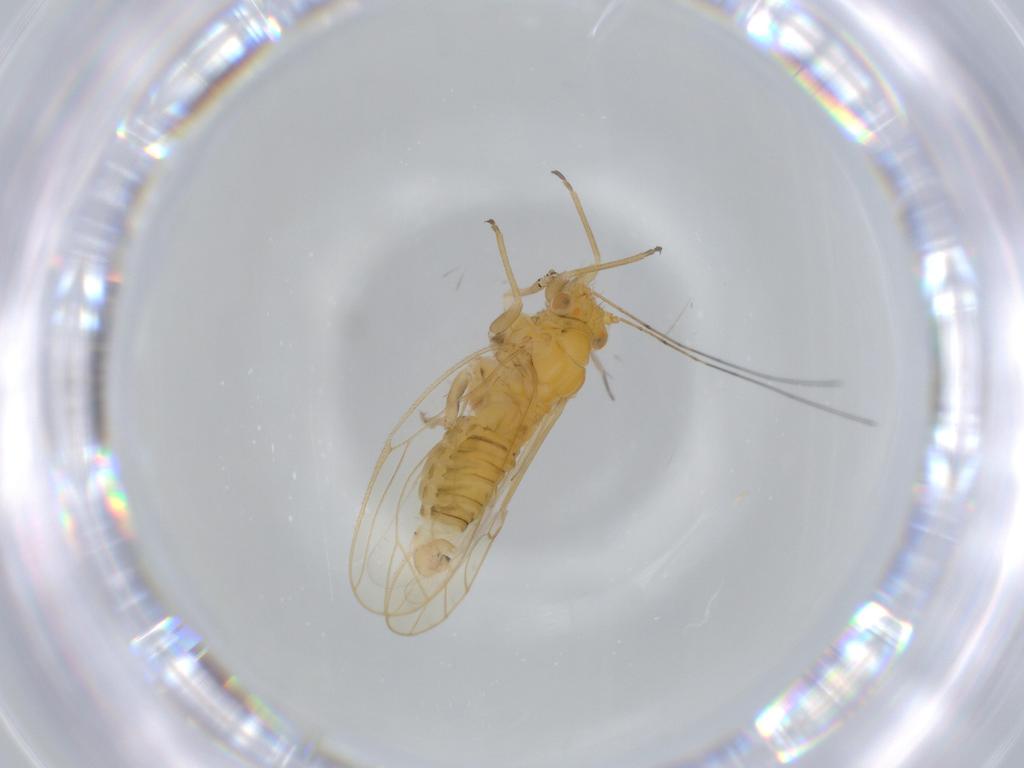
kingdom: Animalia
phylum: Arthropoda
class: Insecta
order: Hemiptera
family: Psyllidae
